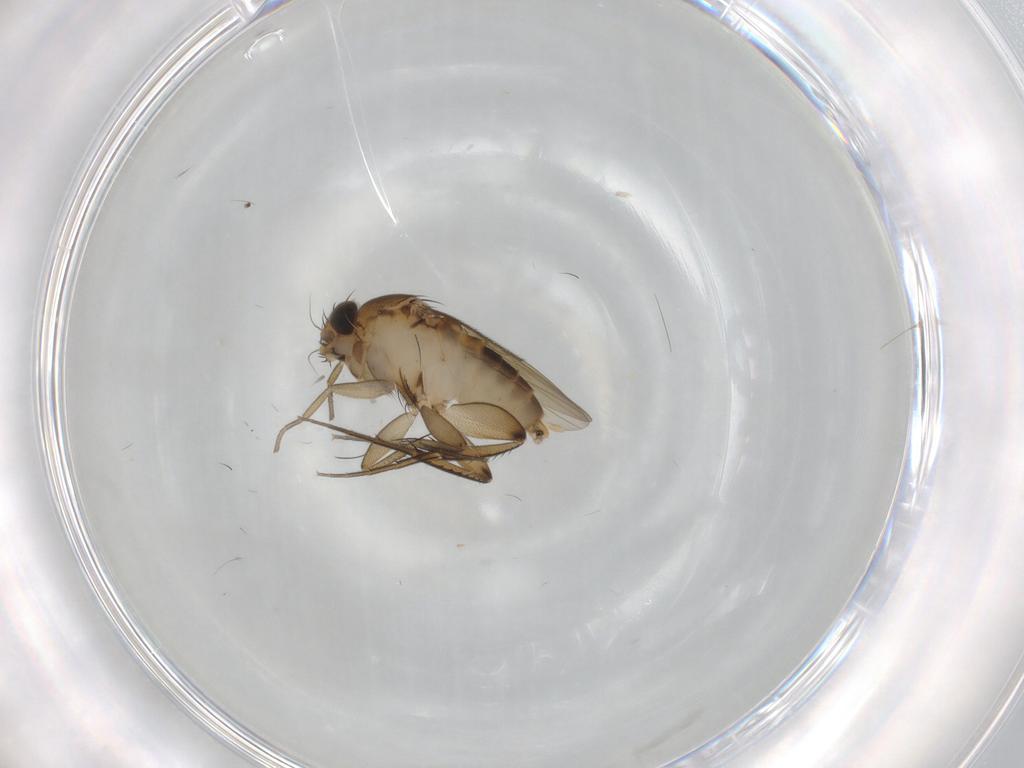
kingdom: Animalia
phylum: Arthropoda
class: Insecta
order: Diptera
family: Phoridae
